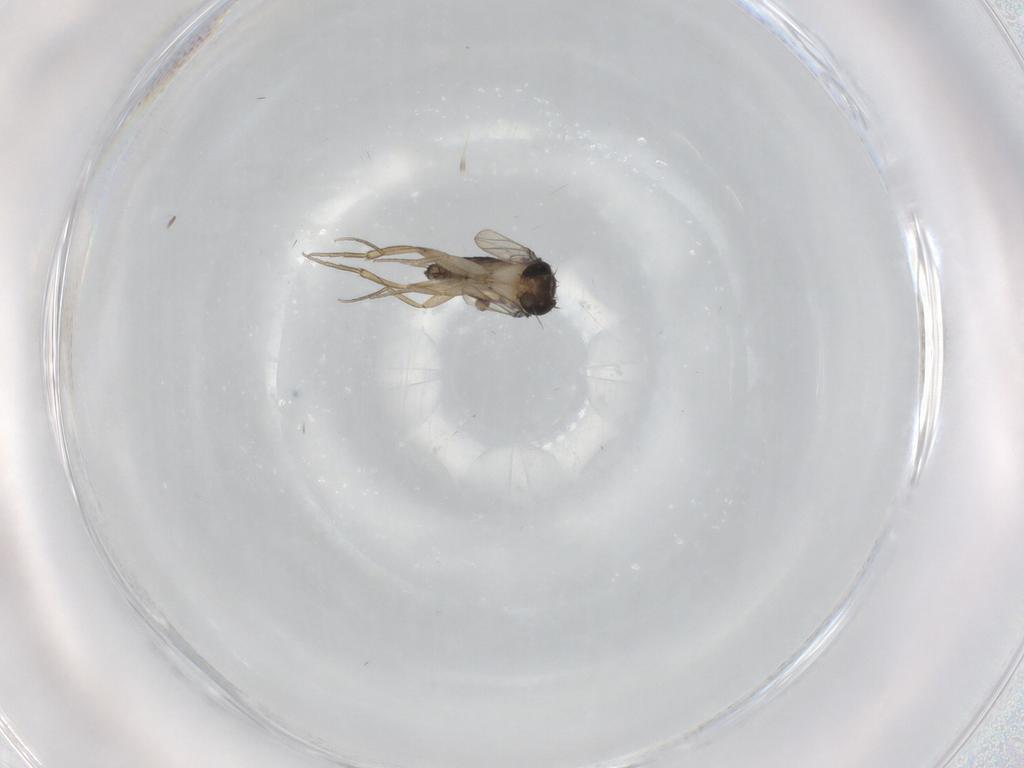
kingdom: Animalia
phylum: Arthropoda
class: Insecta
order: Diptera
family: Phoridae
